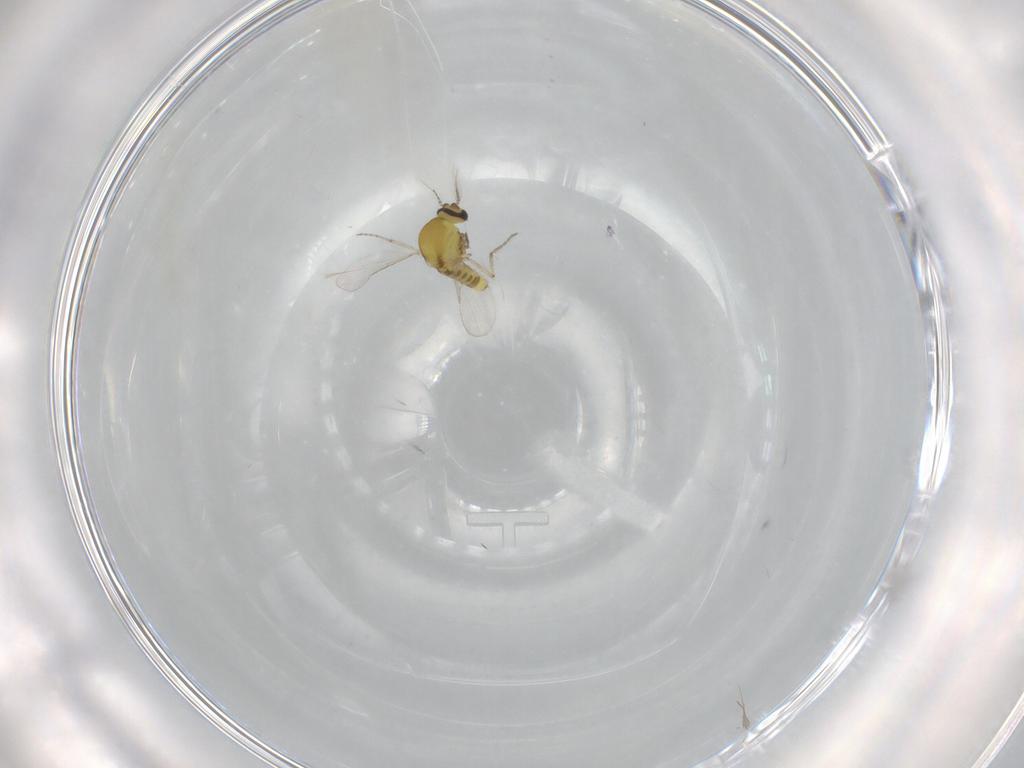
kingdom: Animalia
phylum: Arthropoda
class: Insecta
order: Diptera
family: Ceratopogonidae
